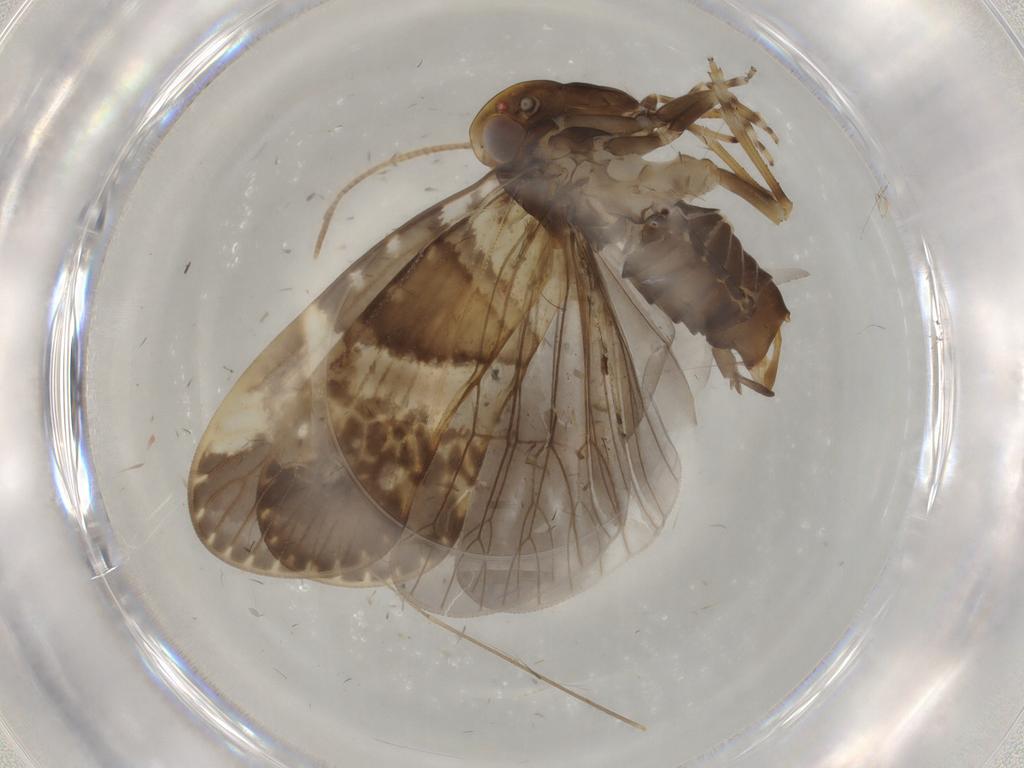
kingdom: Animalia
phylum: Arthropoda
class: Insecta
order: Hemiptera
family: Cixiidae
